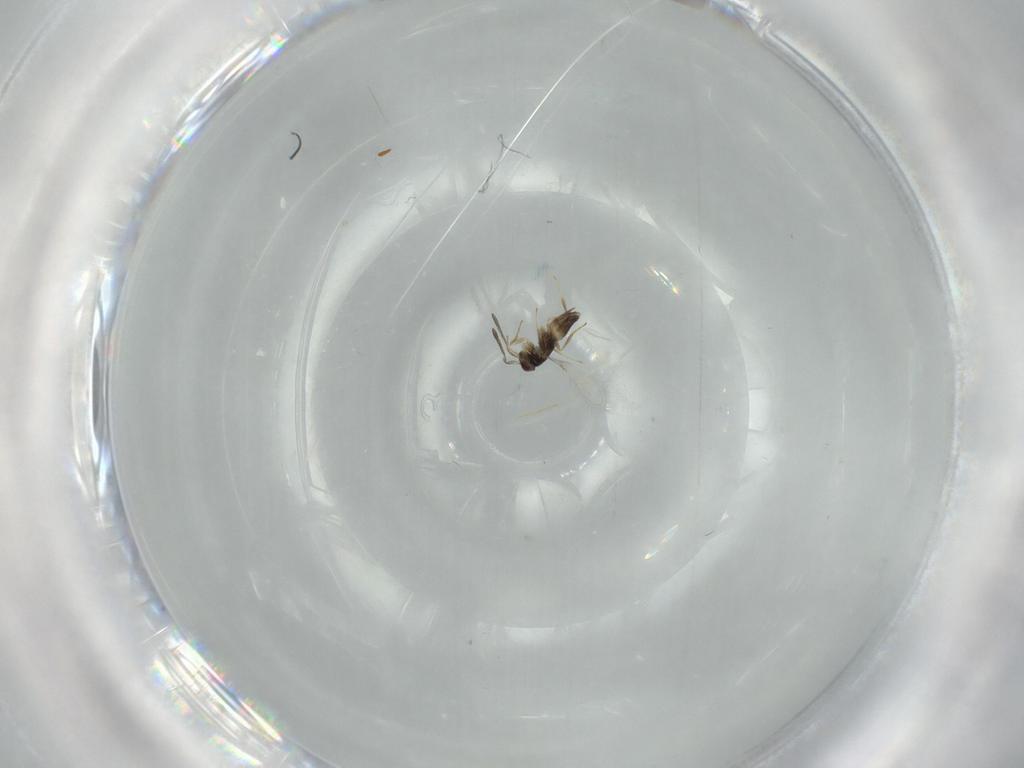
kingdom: Animalia
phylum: Arthropoda
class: Insecta
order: Hymenoptera
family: Mymaridae
